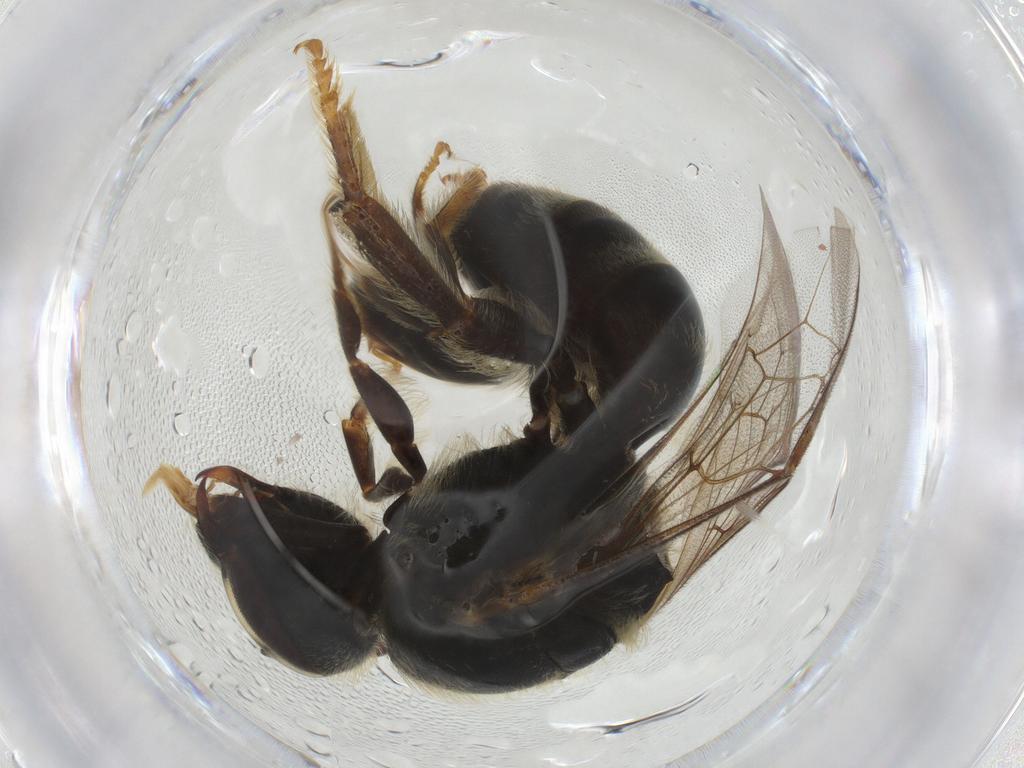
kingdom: Animalia
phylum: Arthropoda
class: Insecta
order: Hymenoptera
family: Halictidae
